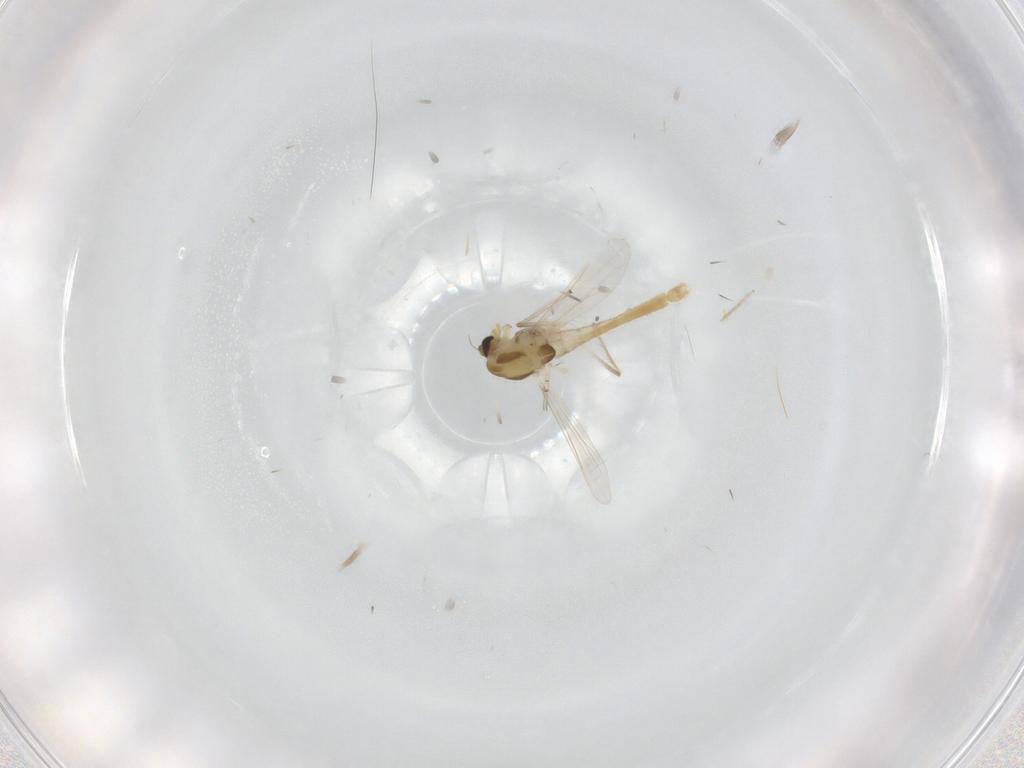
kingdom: Animalia
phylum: Arthropoda
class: Insecta
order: Diptera
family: Chironomidae
